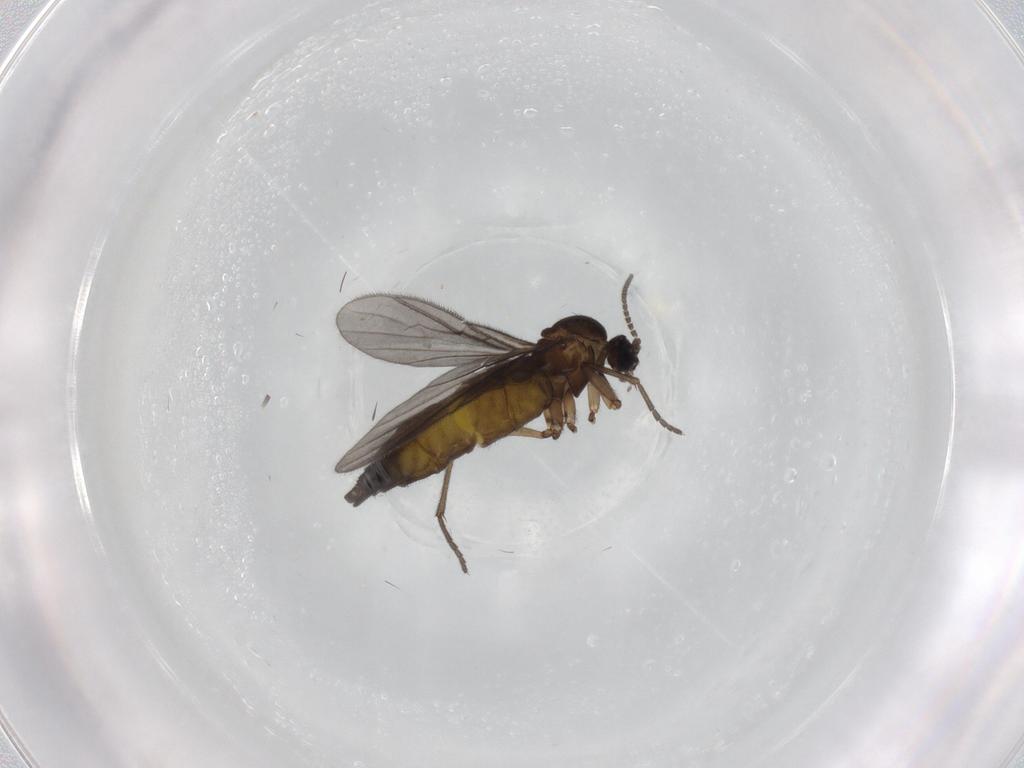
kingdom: Animalia
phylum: Arthropoda
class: Insecta
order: Diptera
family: Sciaridae
